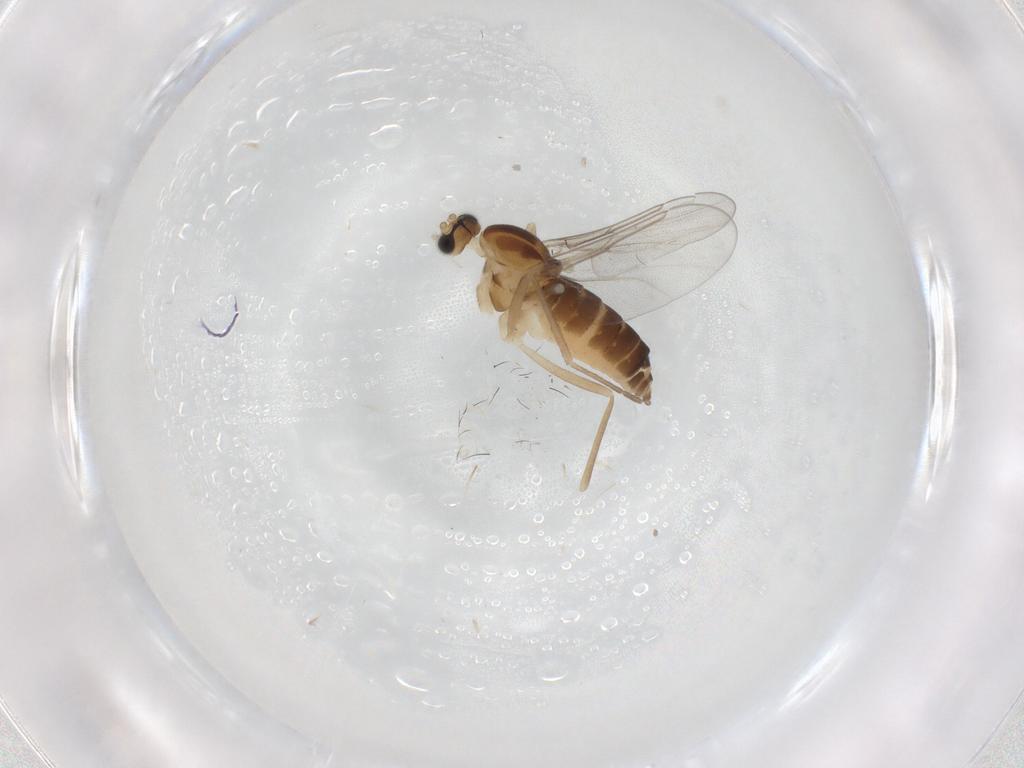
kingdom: Animalia
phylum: Arthropoda
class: Insecta
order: Diptera
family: Cecidomyiidae
